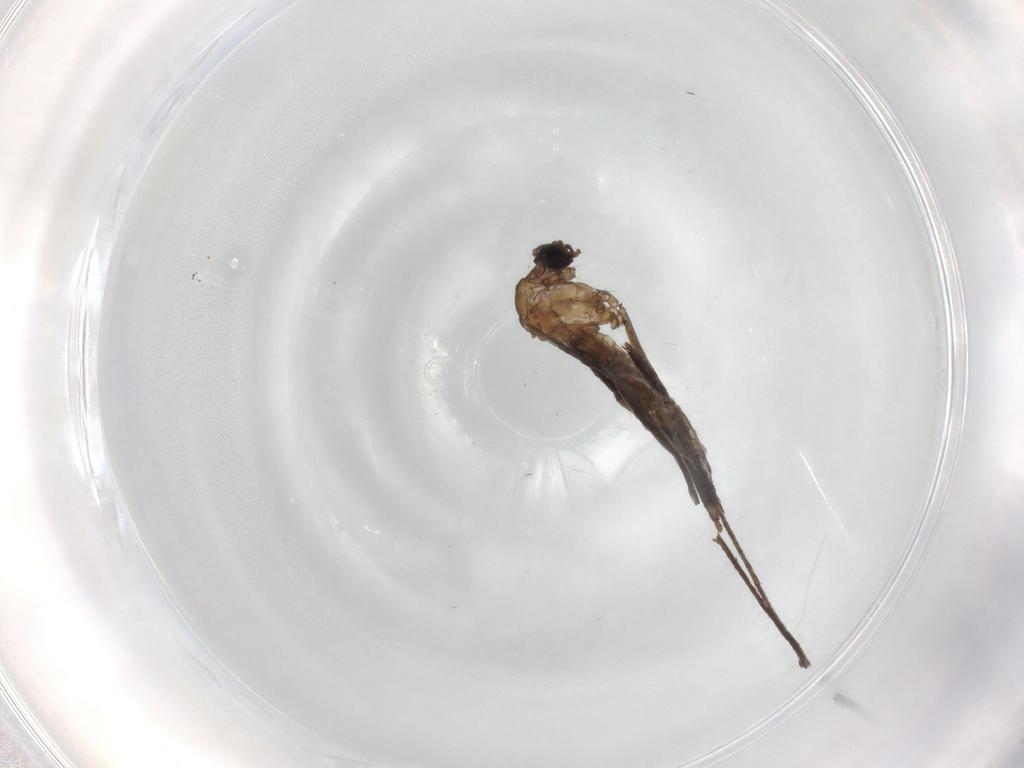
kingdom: Animalia
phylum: Arthropoda
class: Insecta
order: Diptera
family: Ceratopogonidae
